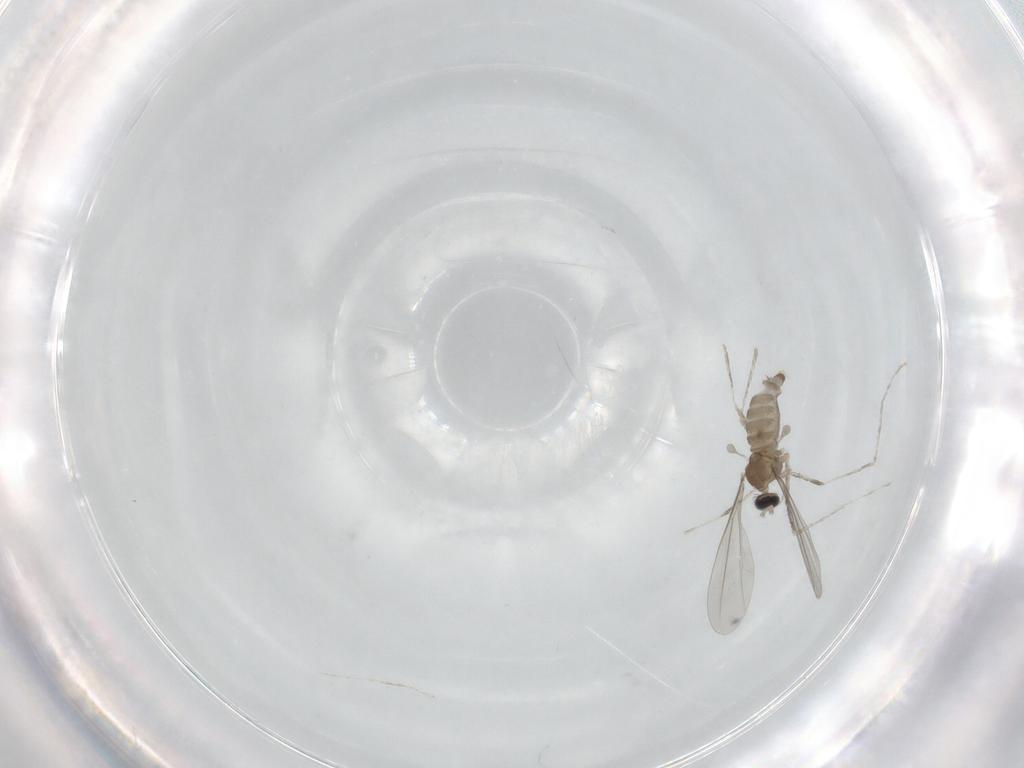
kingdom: Animalia
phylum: Arthropoda
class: Insecta
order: Diptera
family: Cecidomyiidae
